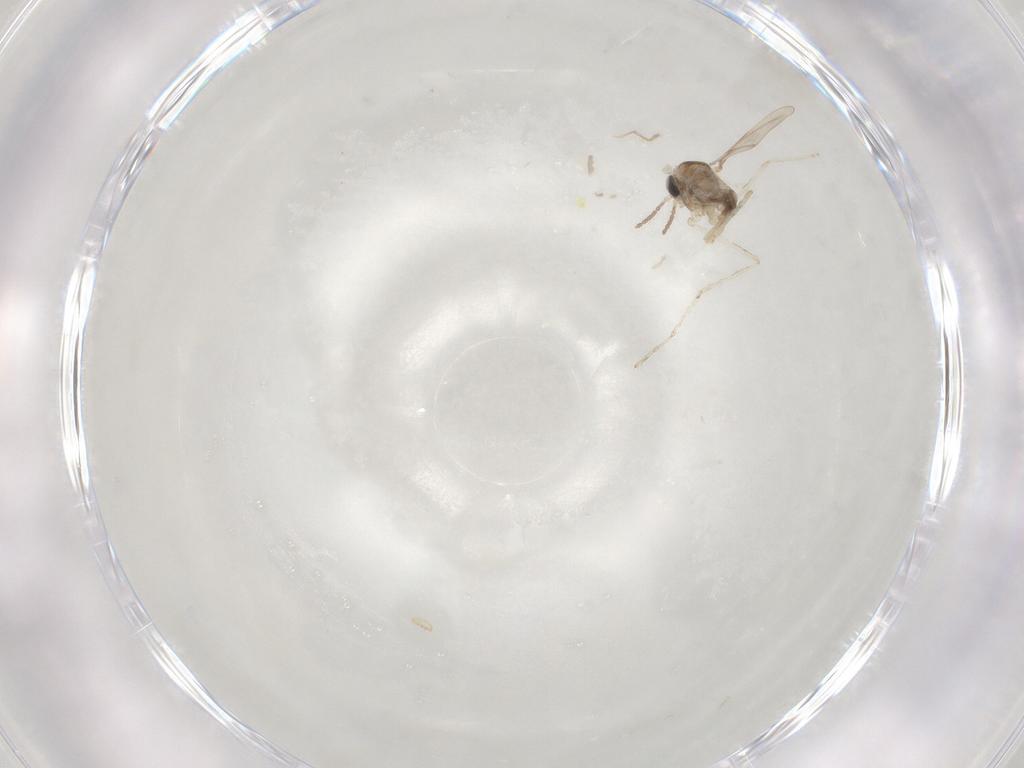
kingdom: Animalia
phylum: Arthropoda
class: Insecta
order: Diptera
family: Cecidomyiidae
